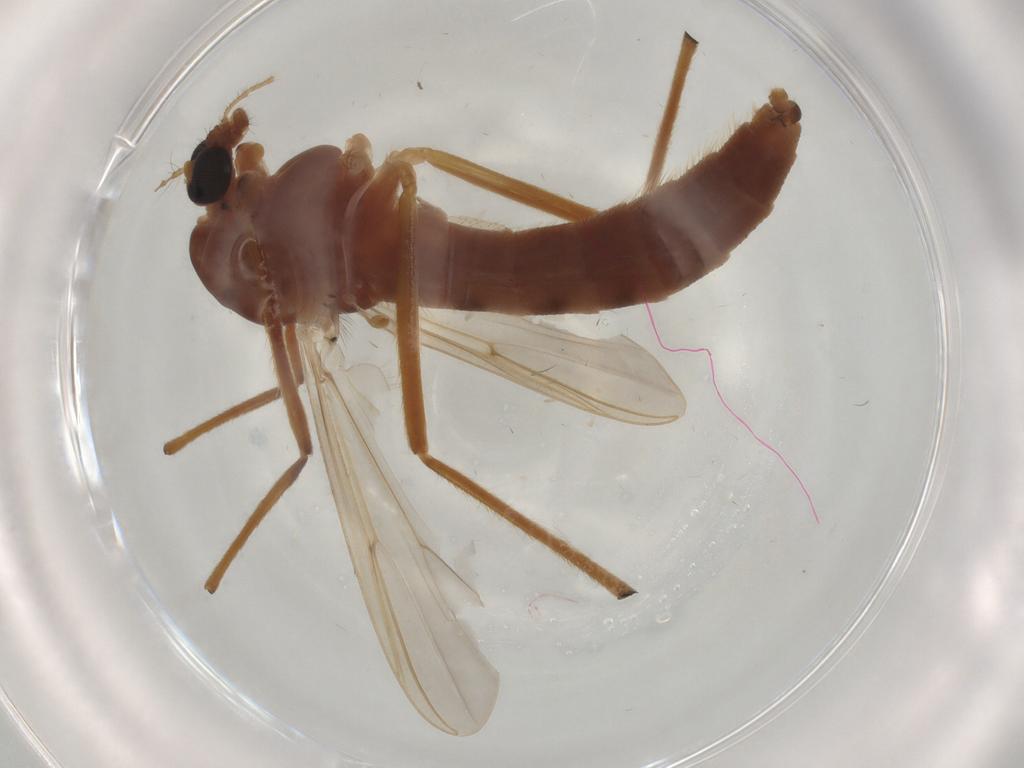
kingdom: Animalia
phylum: Arthropoda
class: Insecta
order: Diptera
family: Chironomidae
